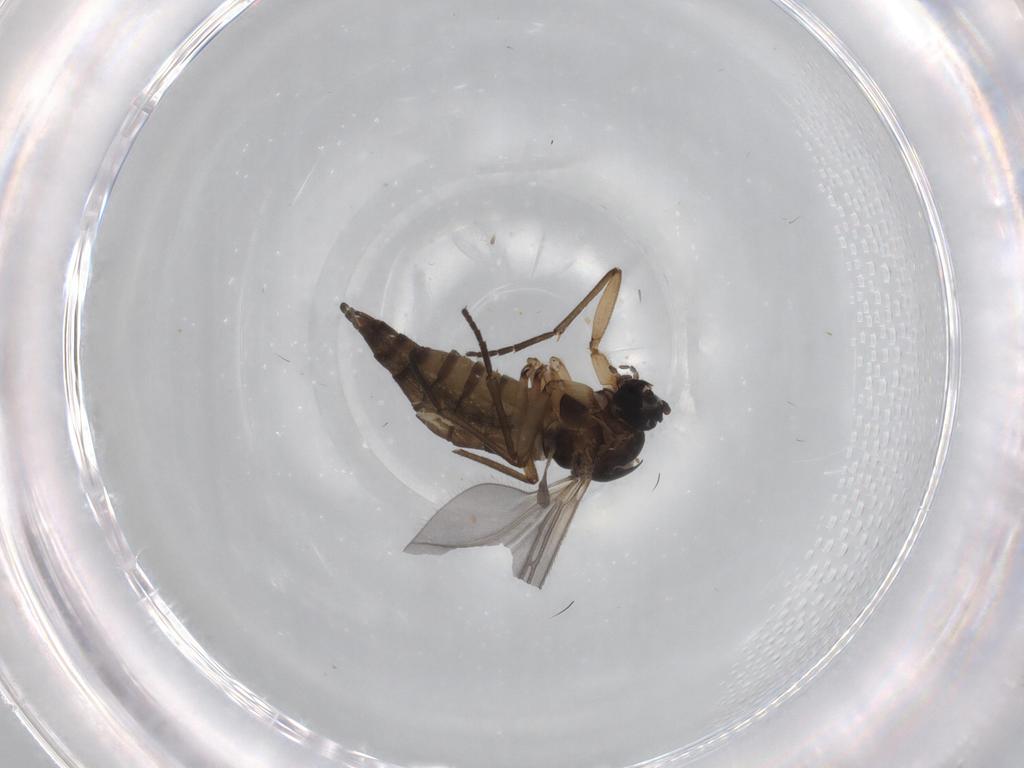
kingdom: Animalia
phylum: Arthropoda
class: Insecta
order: Diptera
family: Sciaridae
